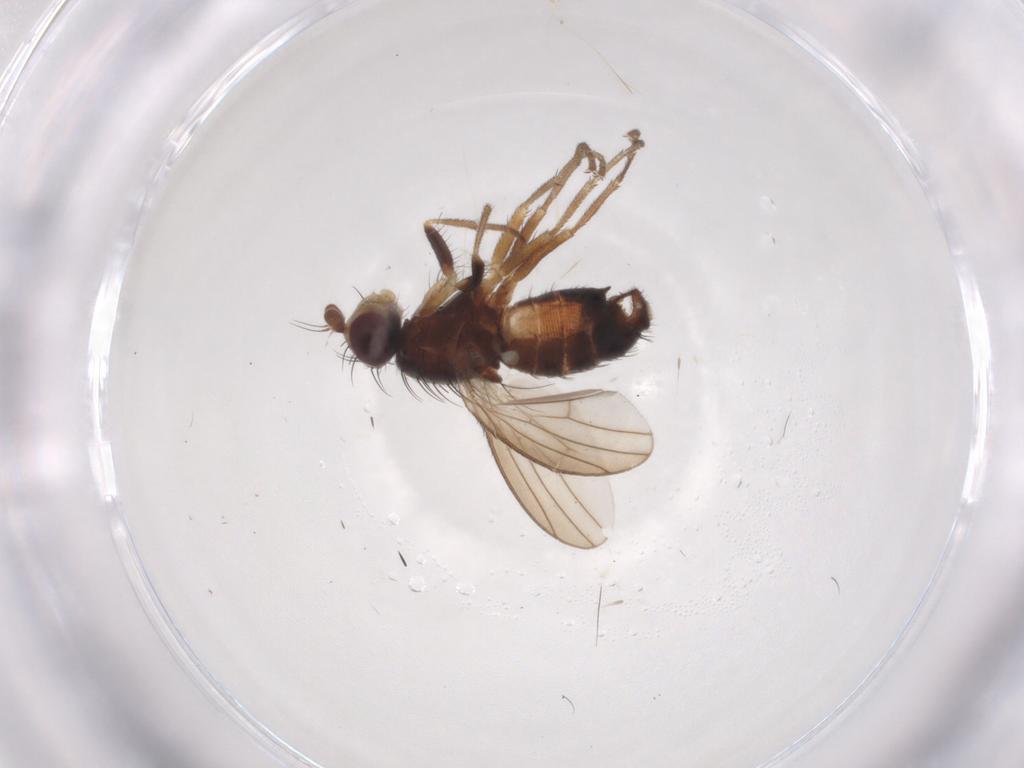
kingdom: Animalia
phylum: Arthropoda
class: Insecta
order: Diptera
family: Heleomyzidae
